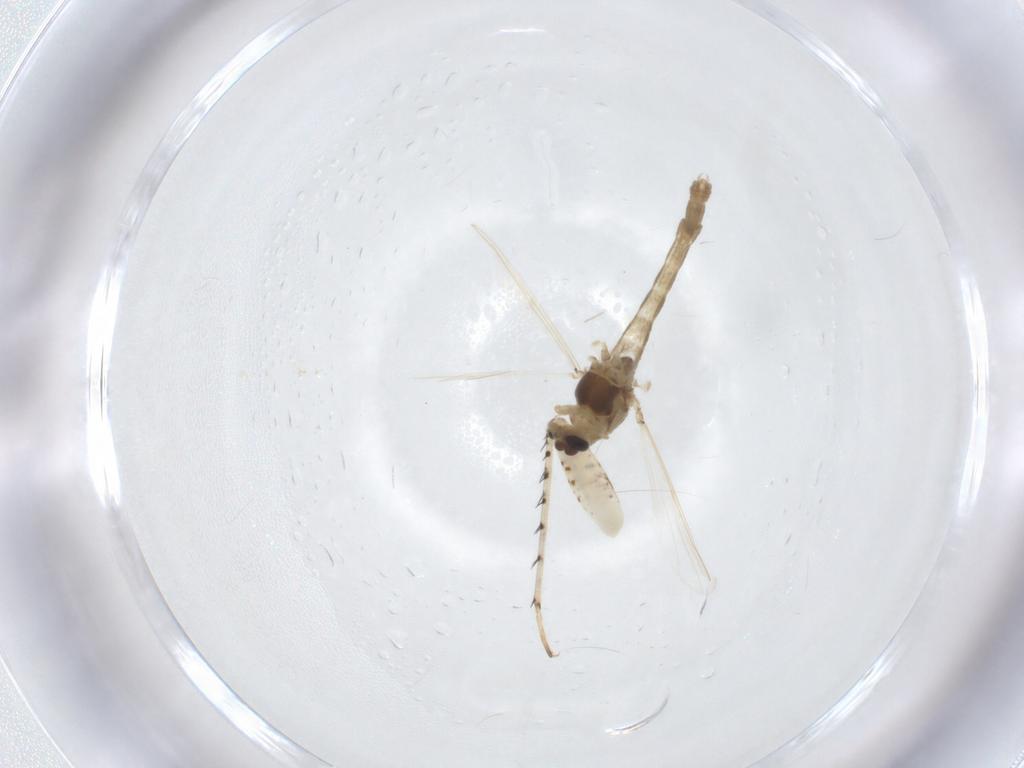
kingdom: Animalia
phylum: Arthropoda
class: Insecta
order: Diptera
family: Chironomidae
